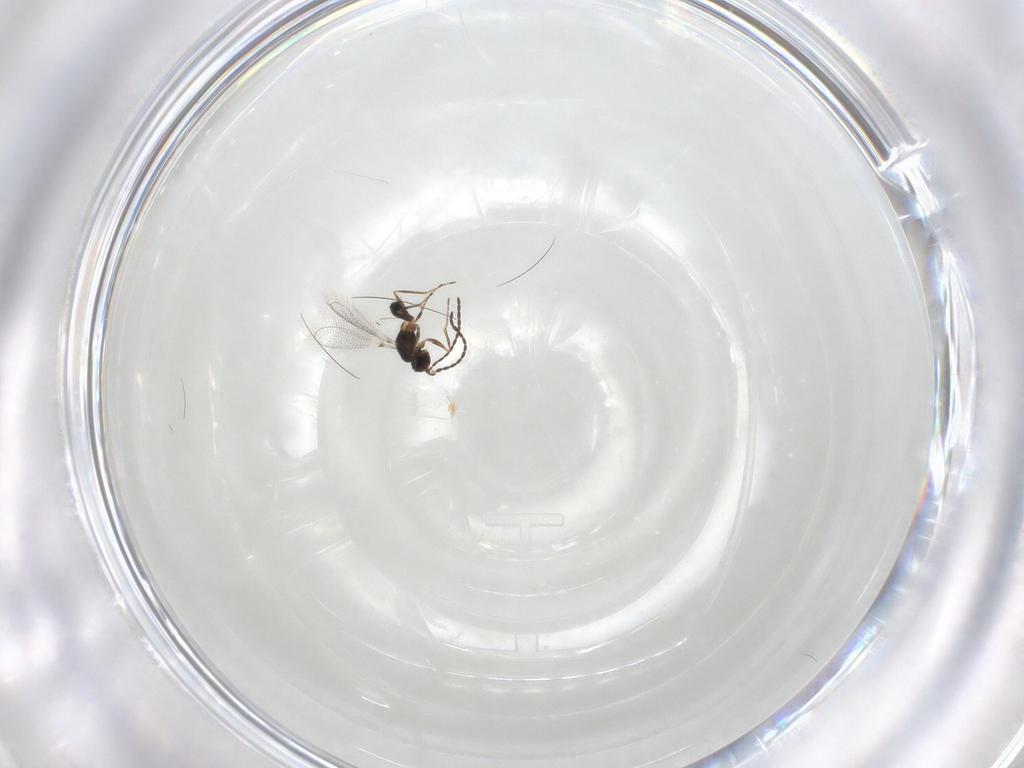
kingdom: Animalia
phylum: Arthropoda
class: Insecta
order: Hymenoptera
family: Mymaridae
